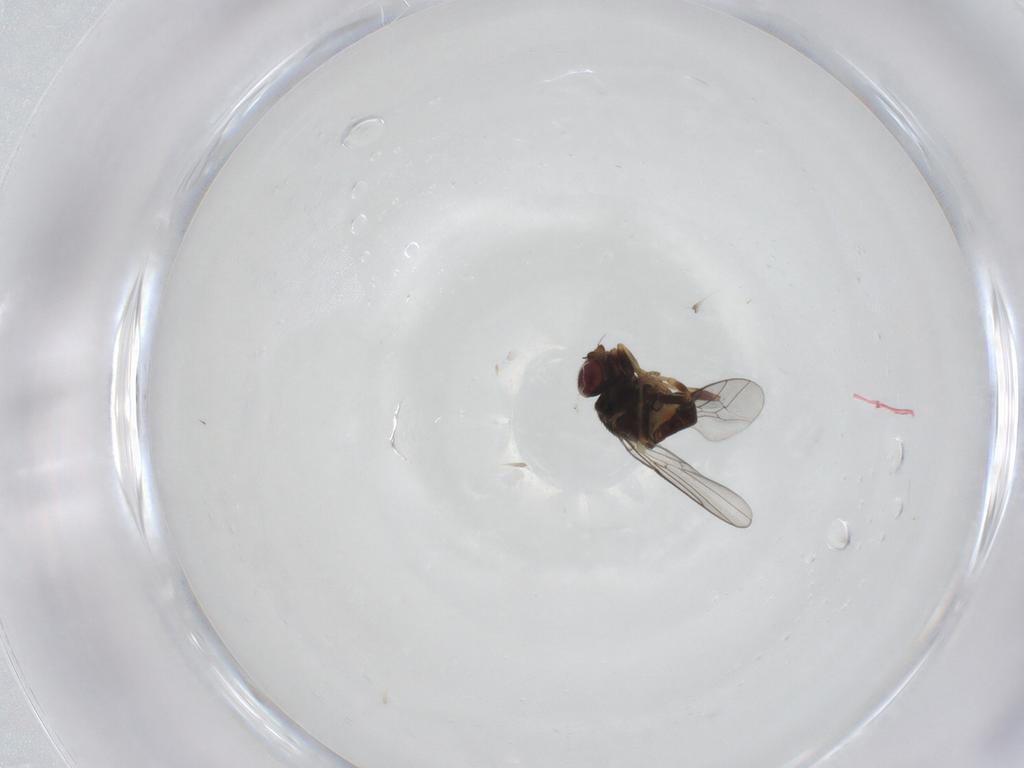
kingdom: Animalia
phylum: Arthropoda
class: Insecta
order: Diptera
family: Chloropidae
